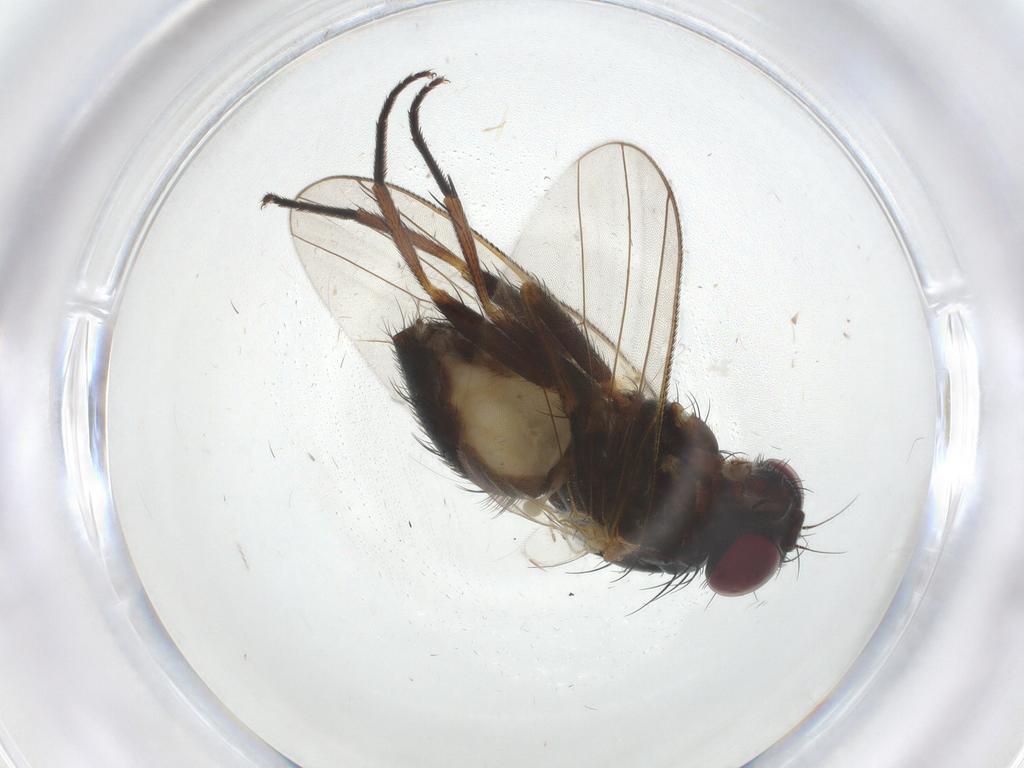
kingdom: Animalia
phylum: Arthropoda
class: Insecta
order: Diptera
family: Fannia
